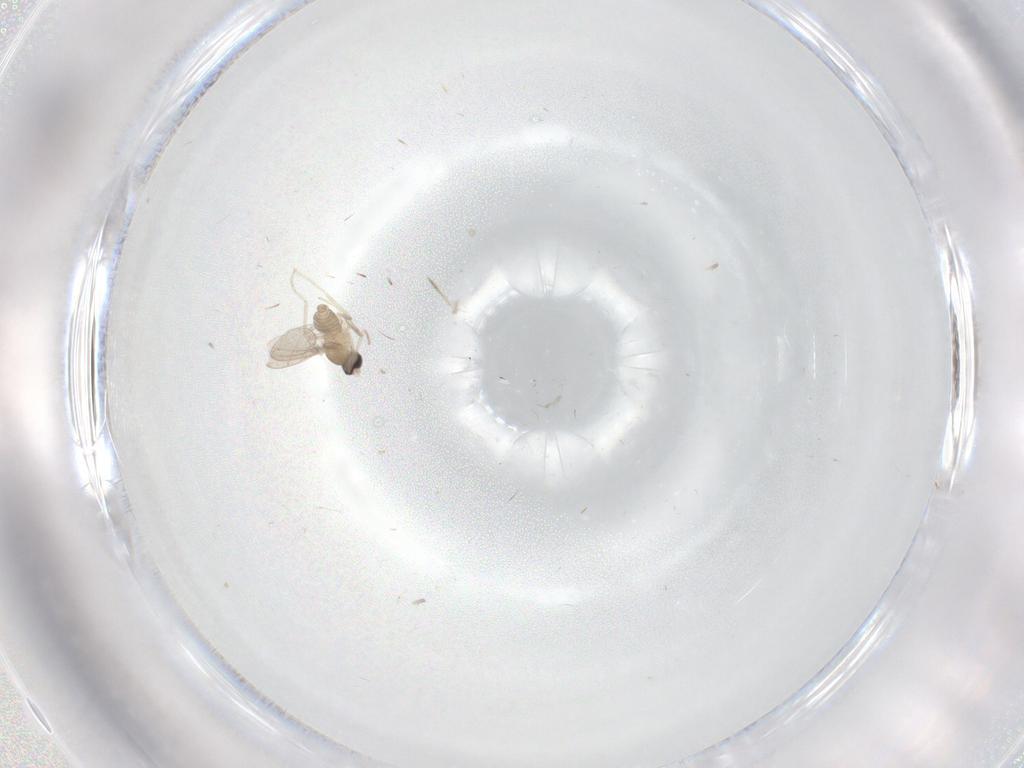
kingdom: Animalia
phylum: Arthropoda
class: Insecta
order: Diptera
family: Cecidomyiidae
